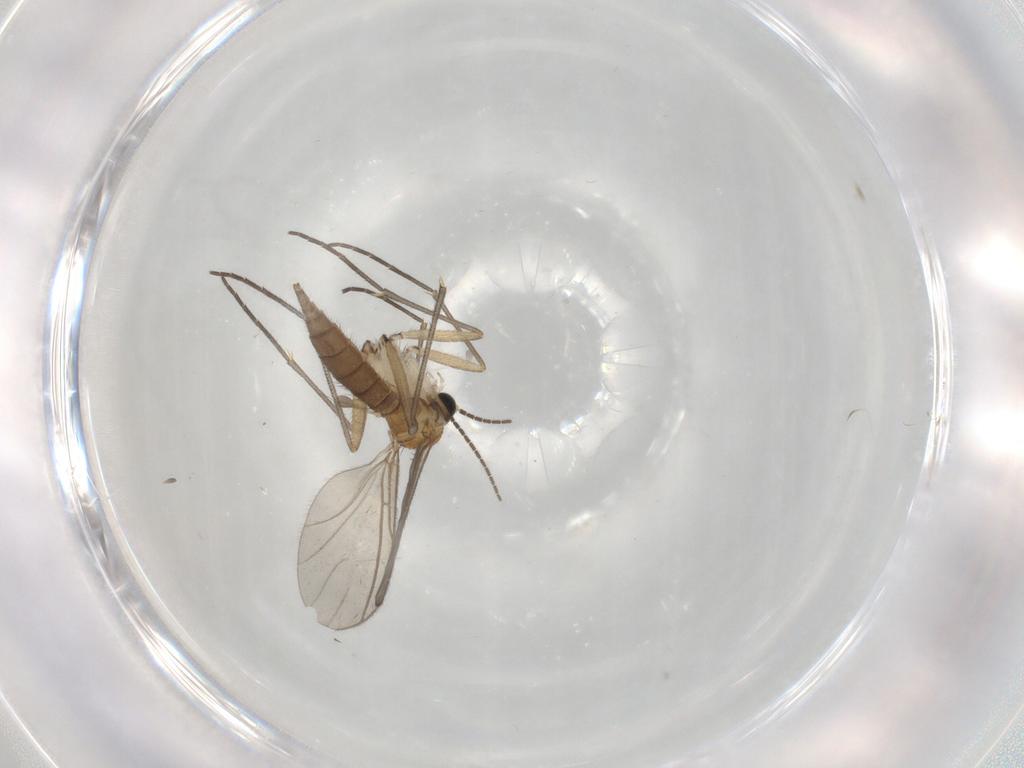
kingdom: Animalia
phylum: Arthropoda
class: Insecta
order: Diptera
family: Sciaridae
